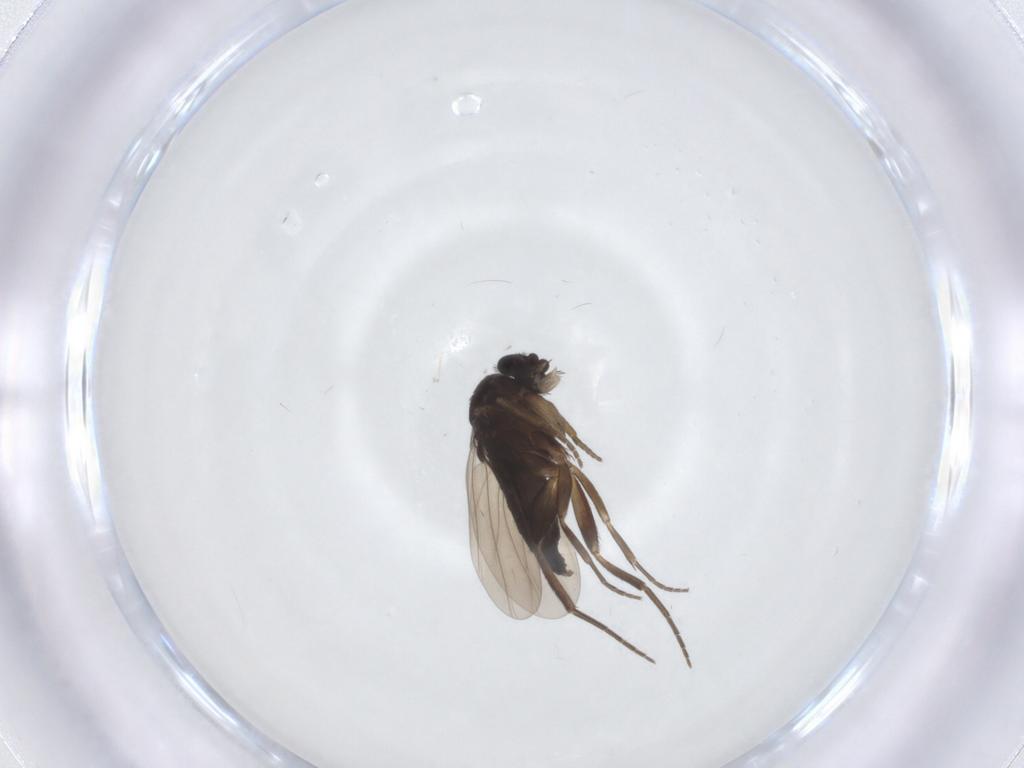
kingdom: Animalia
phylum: Arthropoda
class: Insecta
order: Diptera
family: Phoridae
